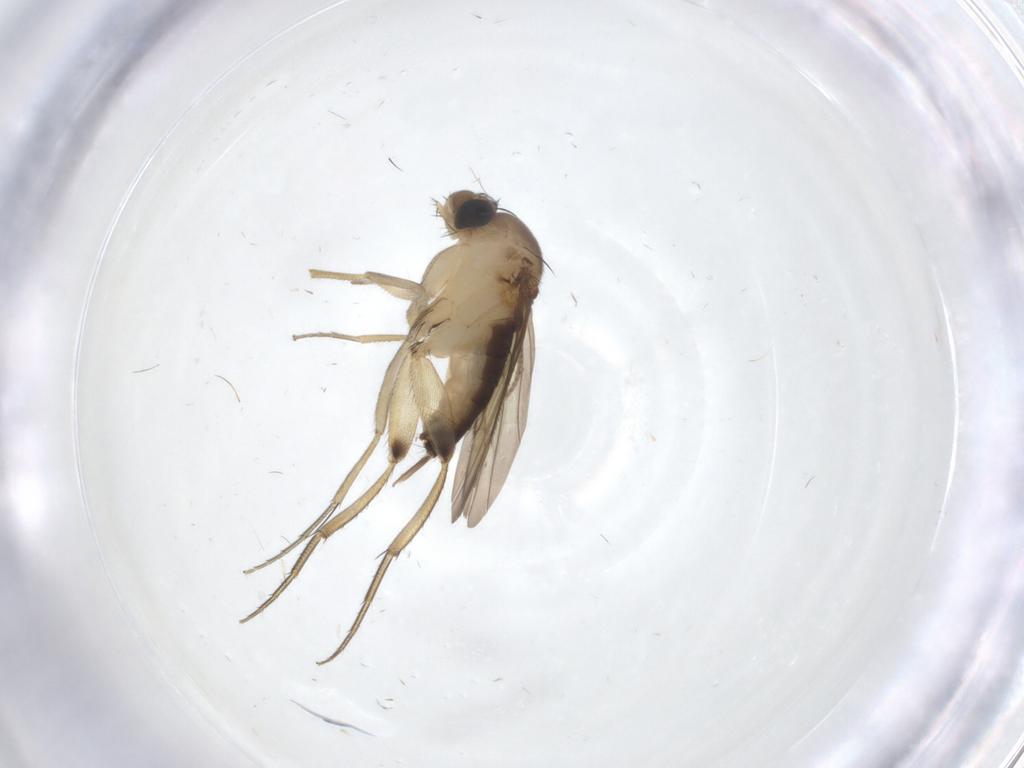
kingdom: Animalia
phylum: Arthropoda
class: Insecta
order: Diptera
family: Phoridae
